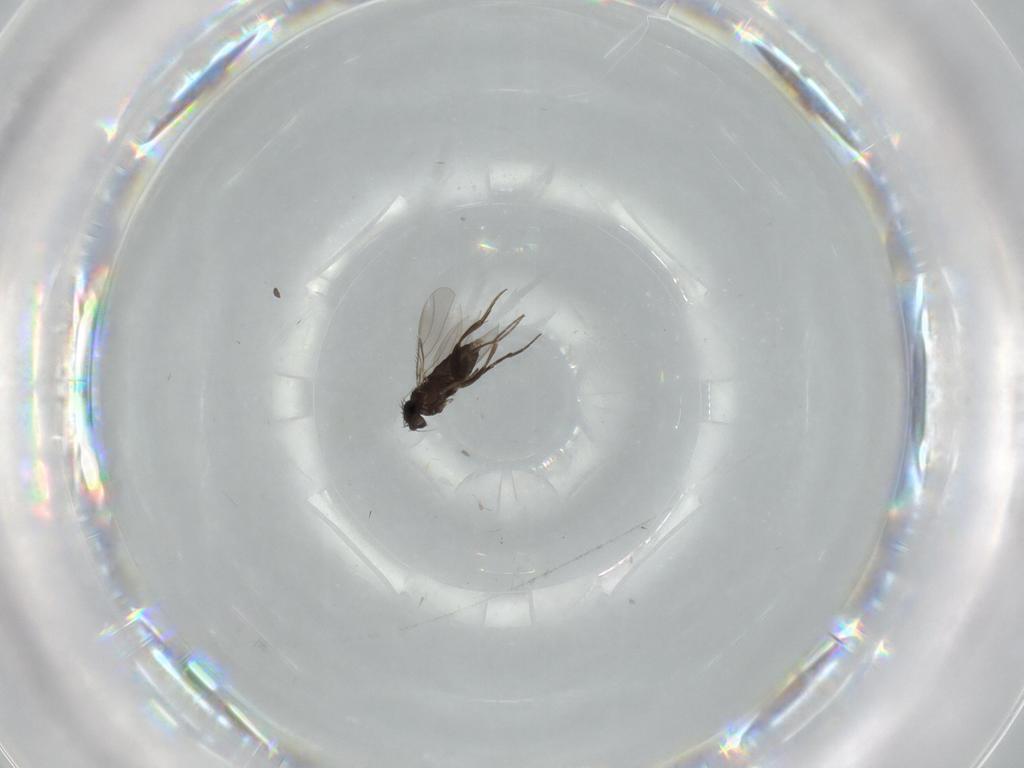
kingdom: Animalia
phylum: Arthropoda
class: Insecta
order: Diptera
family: Phoridae
